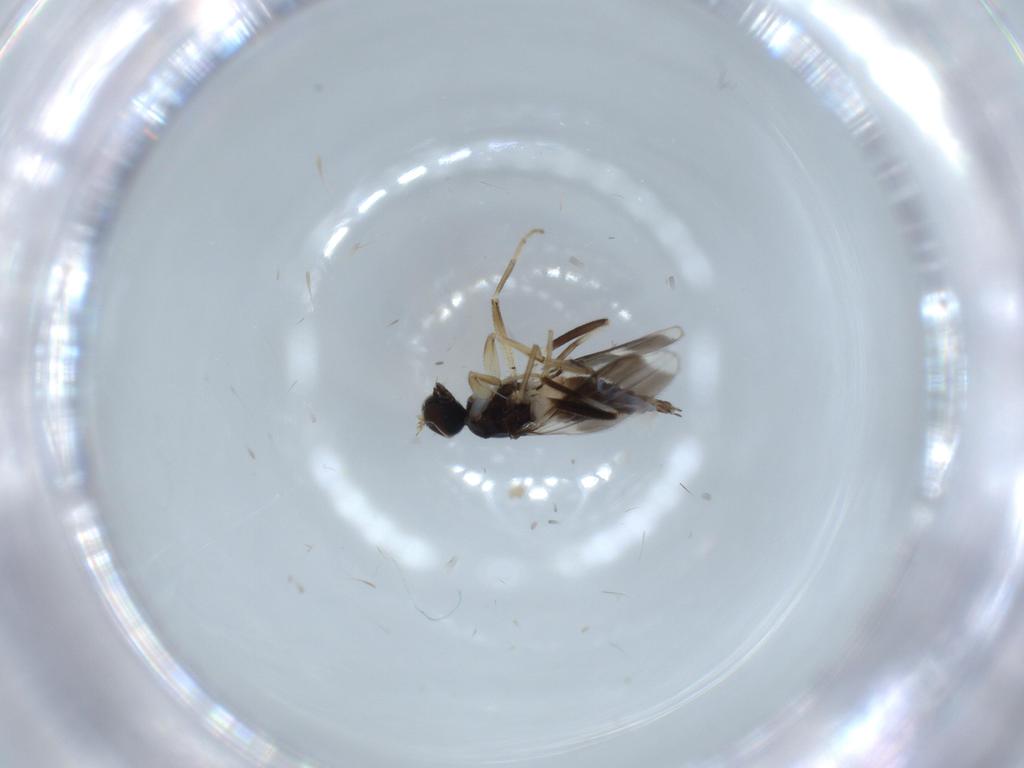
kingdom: Animalia
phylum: Arthropoda
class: Insecta
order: Diptera
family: Hybotidae
